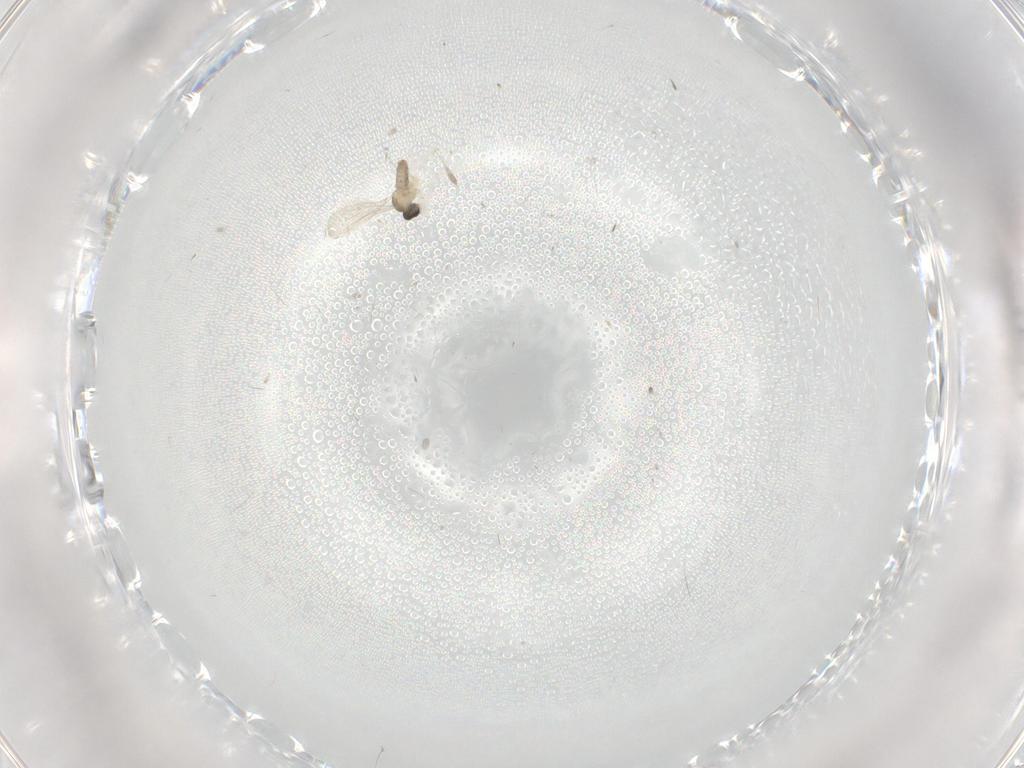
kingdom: Animalia
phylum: Arthropoda
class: Insecta
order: Diptera
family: Cecidomyiidae
